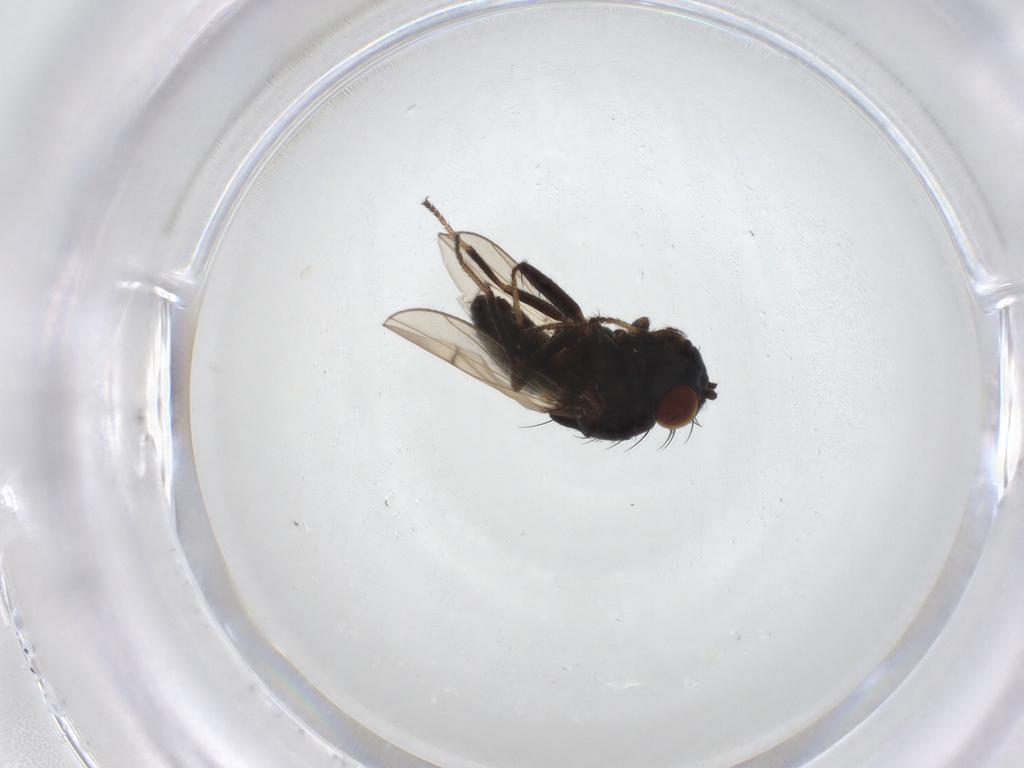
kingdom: Animalia
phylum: Arthropoda
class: Insecta
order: Diptera
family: Ephydridae
